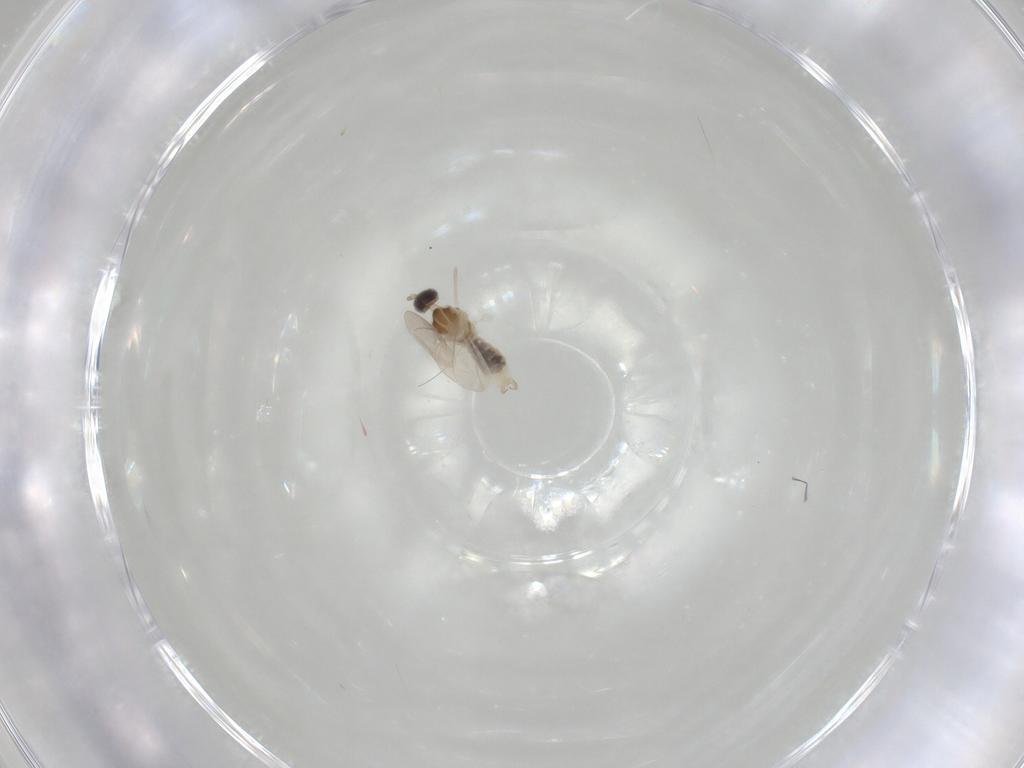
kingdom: Animalia
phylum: Arthropoda
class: Insecta
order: Diptera
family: Cecidomyiidae
